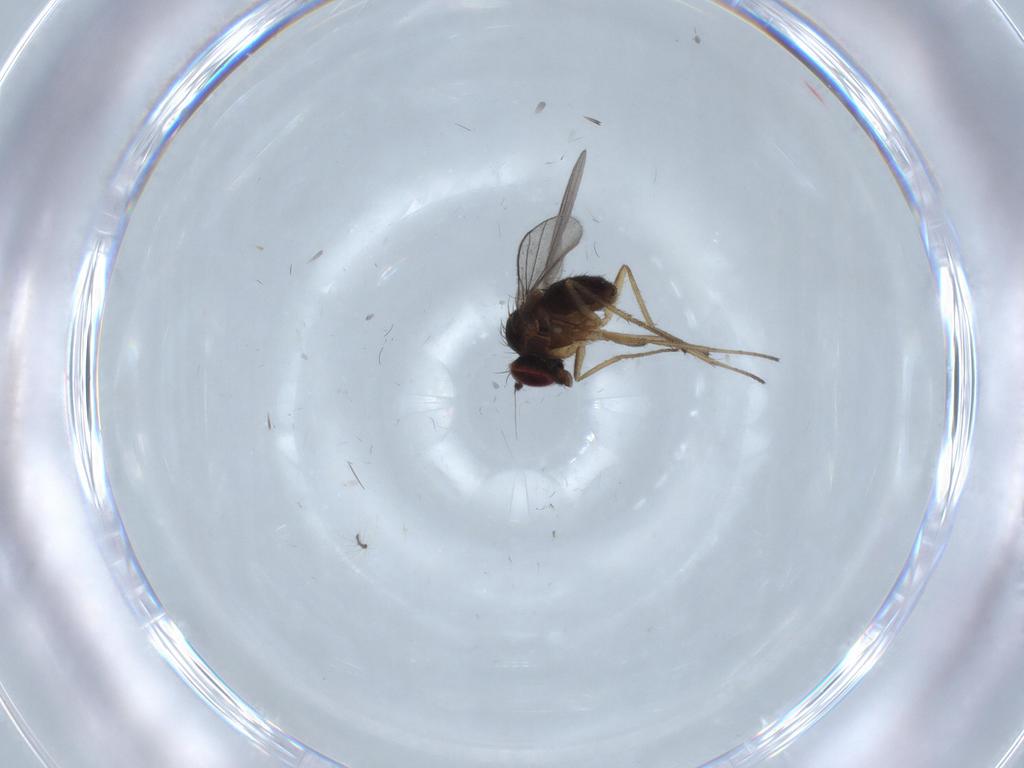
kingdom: Animalia
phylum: Arthropoda
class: Insecta
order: Diptera
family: Dolichopodidae
